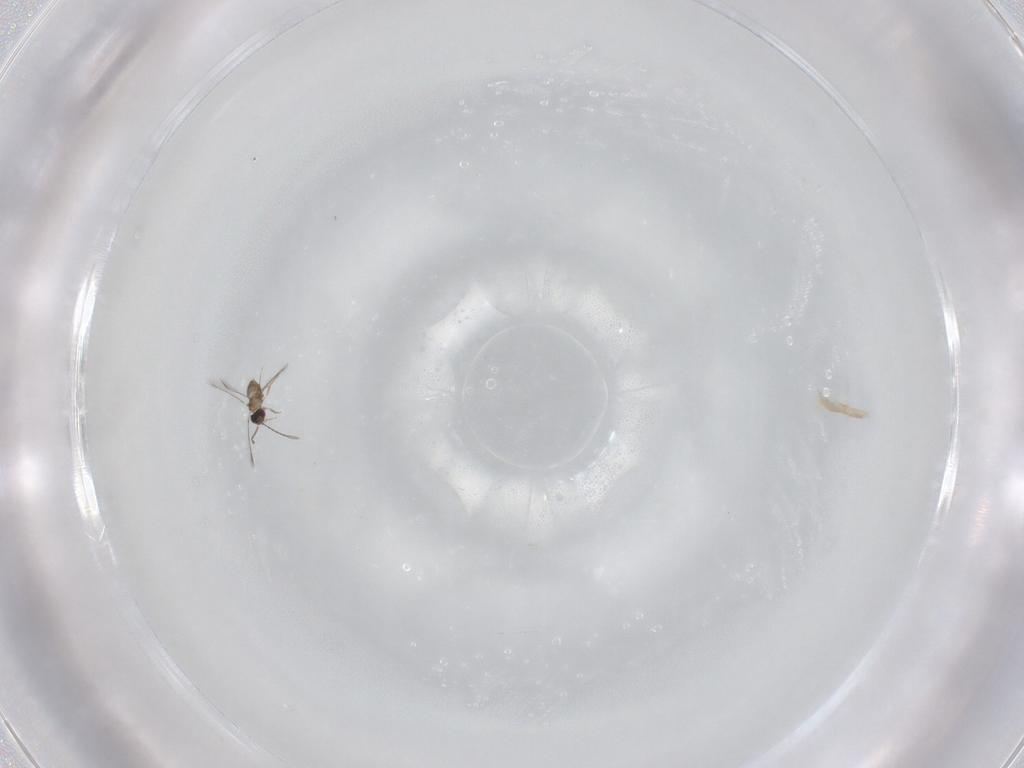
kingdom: Animalia
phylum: Arthropoda
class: Insecta
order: Hymenoptera
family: Mymaridae
